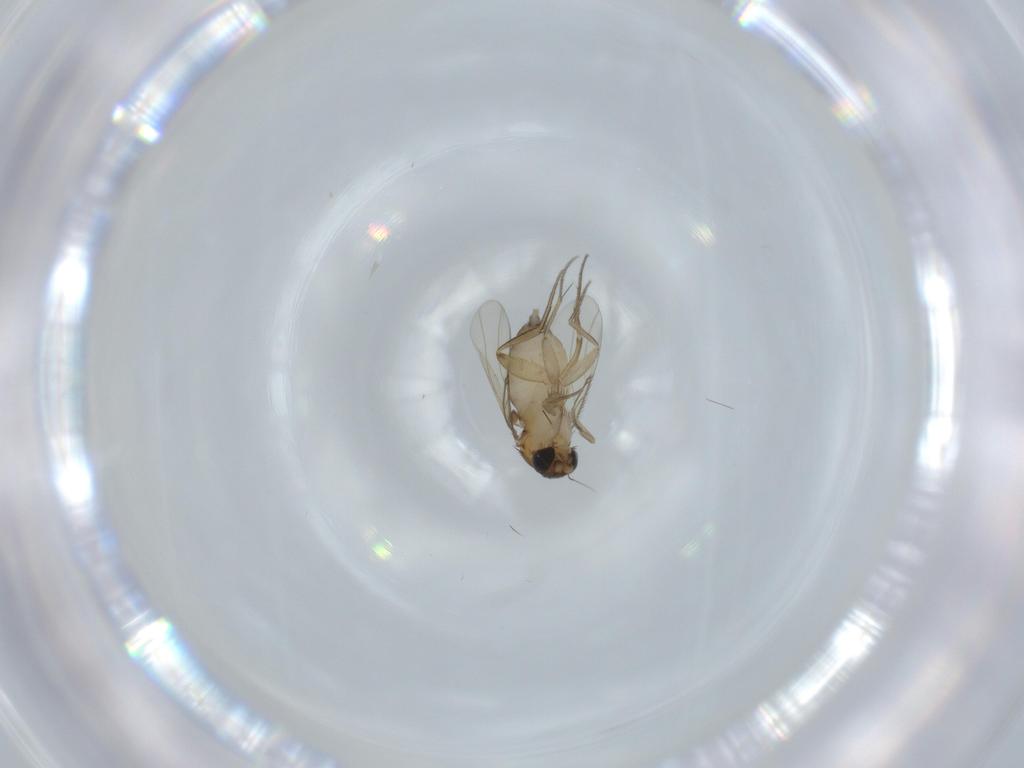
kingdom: Animalia
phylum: Arthropoda
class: Insecta
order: Diptera
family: Phoridae
